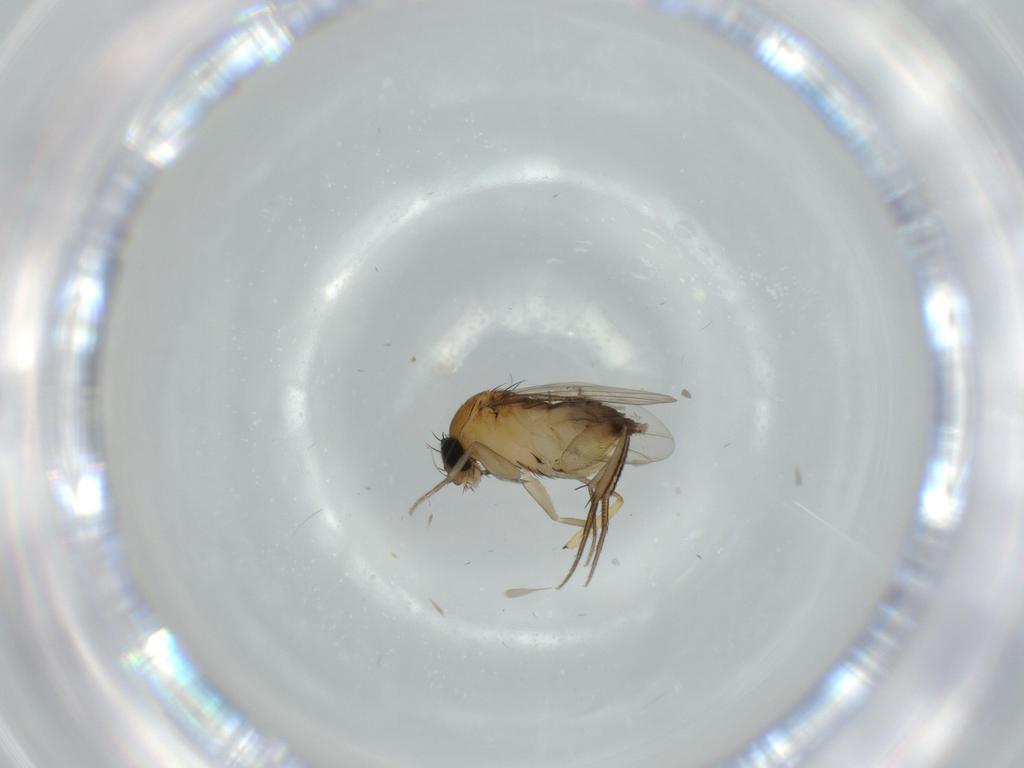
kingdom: Animalia
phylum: Arthropoda
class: Insecta
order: Diptera
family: Phoridae
